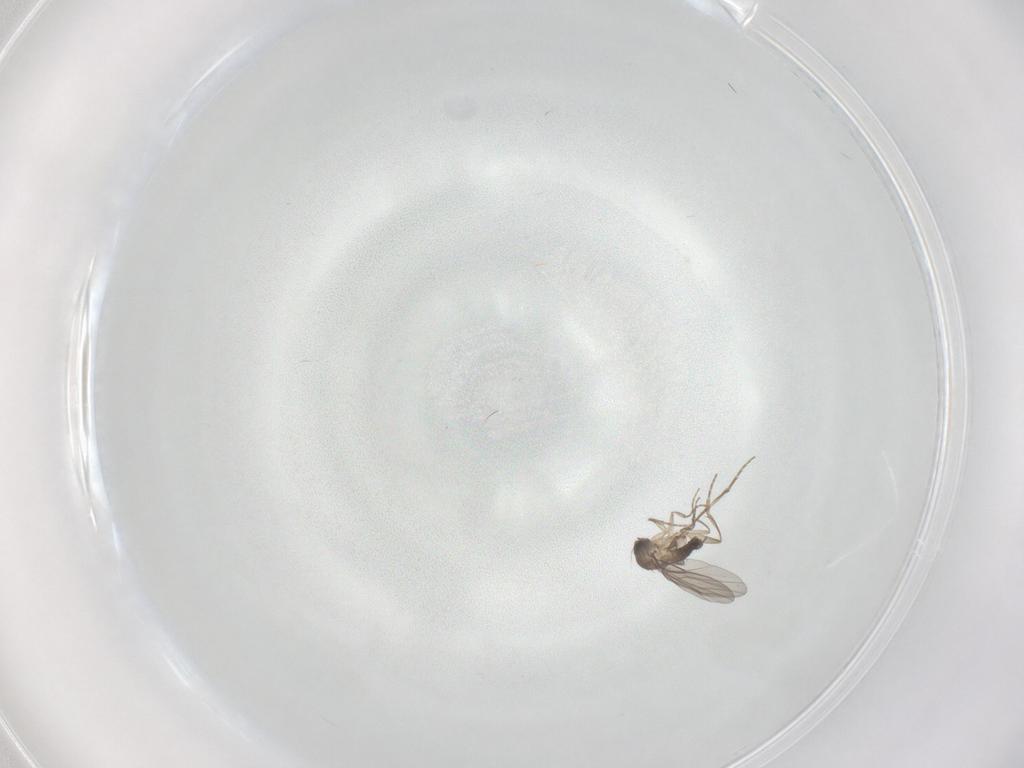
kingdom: Animalia
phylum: Arthropoda
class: Insecta
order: Diptera
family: Phoridae
